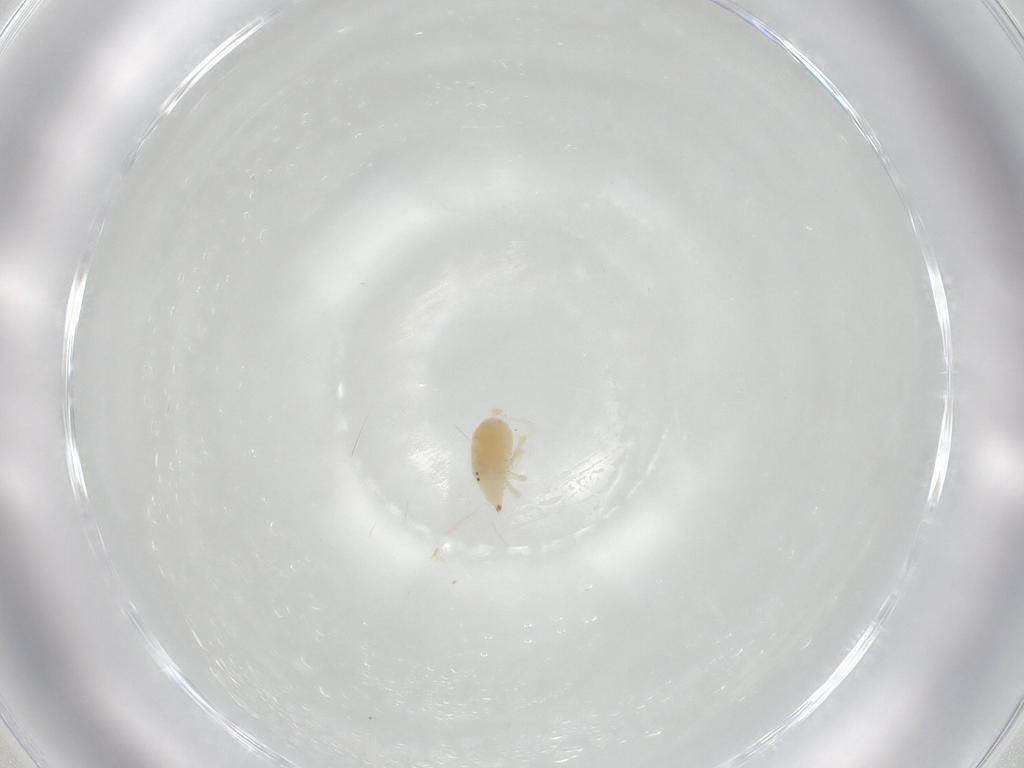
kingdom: Animalia
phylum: Arthropoda
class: Arachnida
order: Trombidiformes
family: Bdellidae
